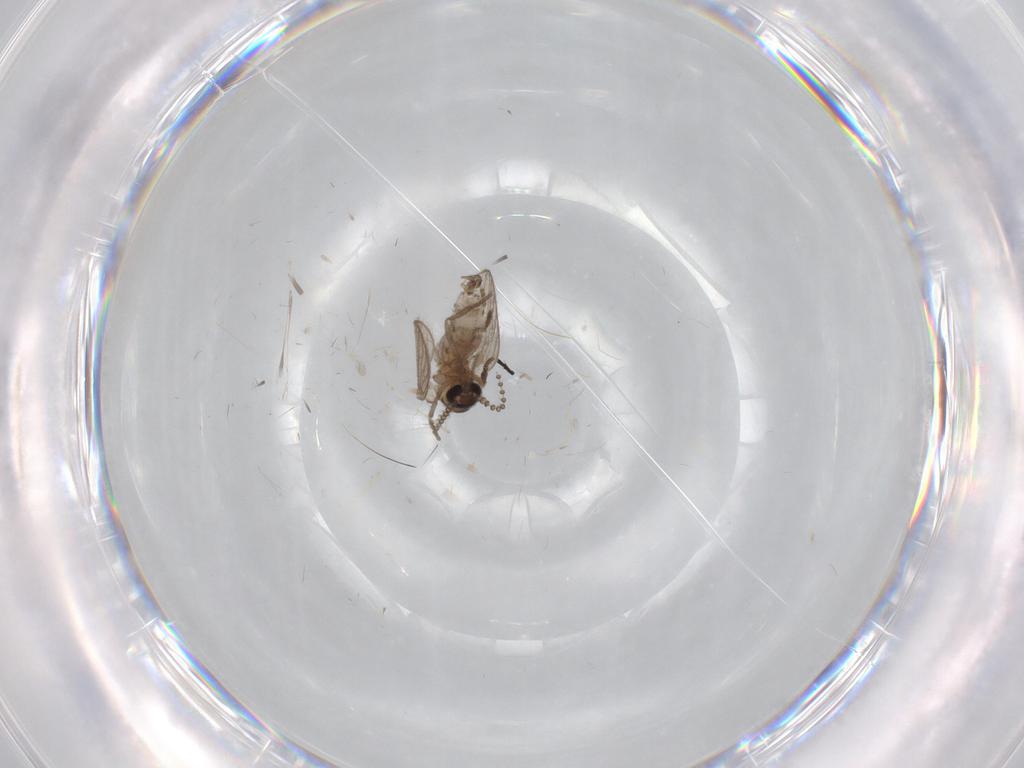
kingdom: Animalia
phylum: Arthropoda
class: Insecta
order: Diptera
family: Psychodidae
